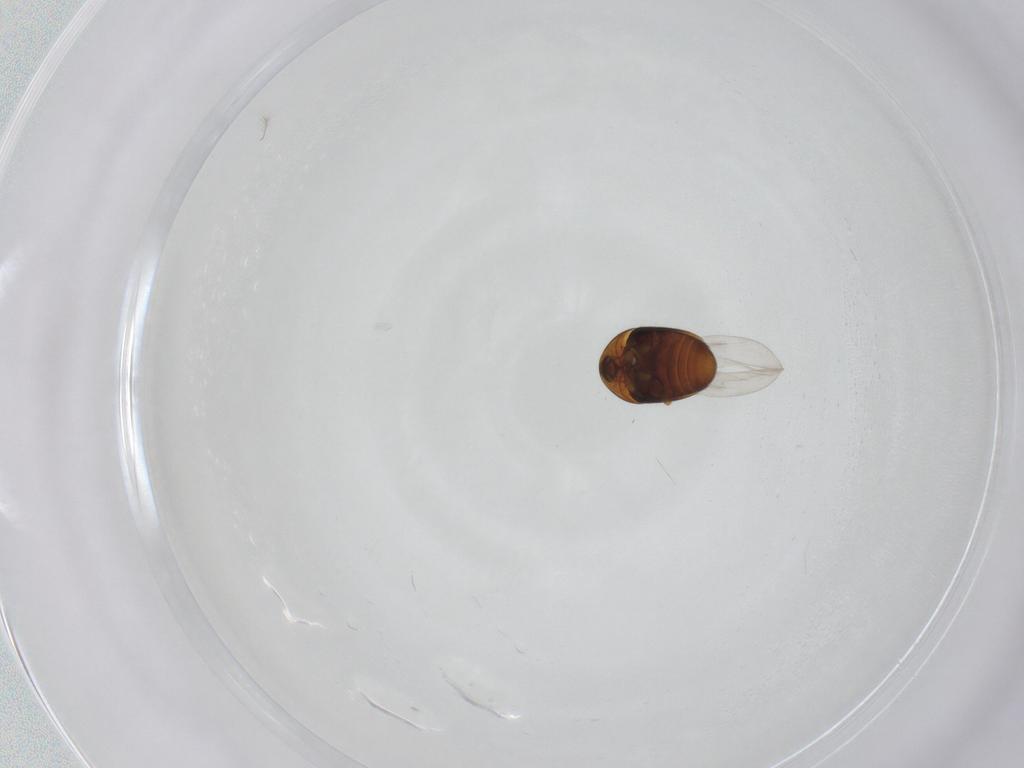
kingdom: Animalia
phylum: Arthropoda
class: Insecta
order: Coleoptera
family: Corylophidae
